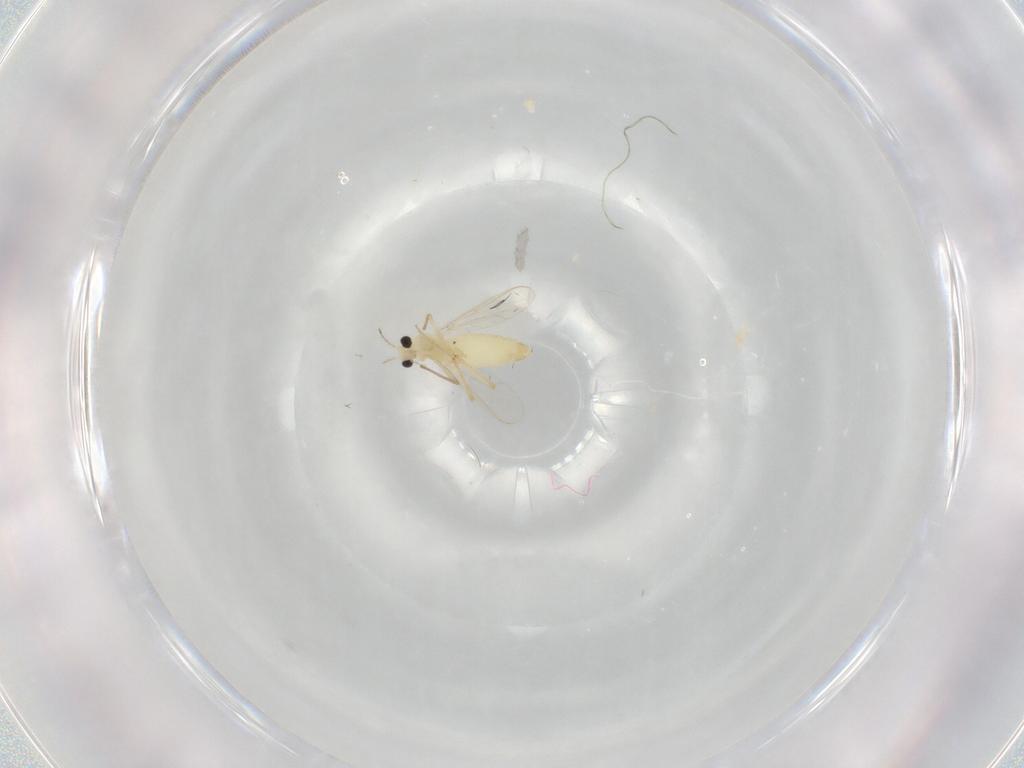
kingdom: Animalia
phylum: Arthropoda
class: Insecta
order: Diptera
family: Chironomidae
